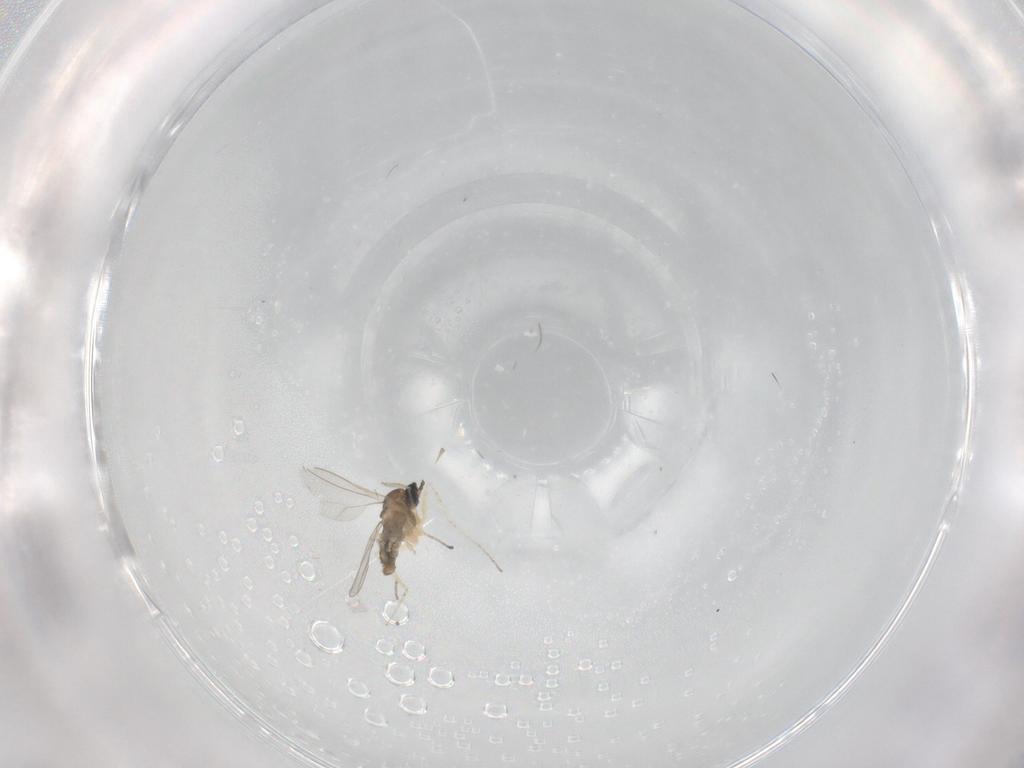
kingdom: Animalia
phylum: Arthropoda
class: Insecta
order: Diptera
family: Cecidomyiidae
